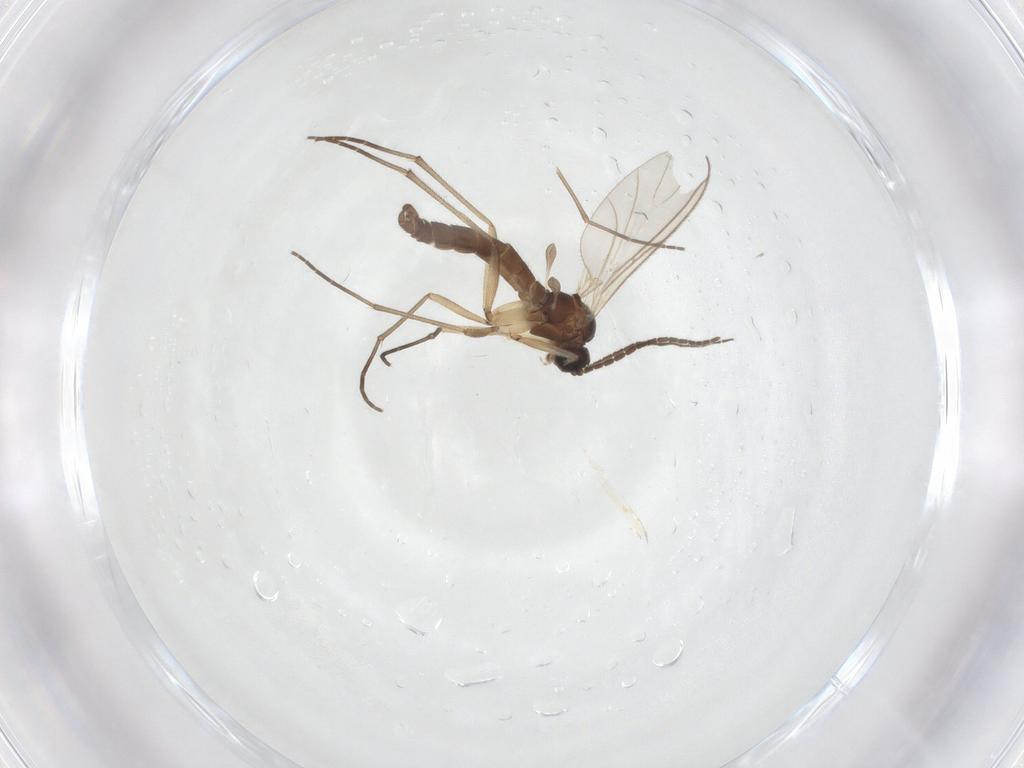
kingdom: Animalia
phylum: Arthropoda
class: Insecta
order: Diptera
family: Sciaridae
